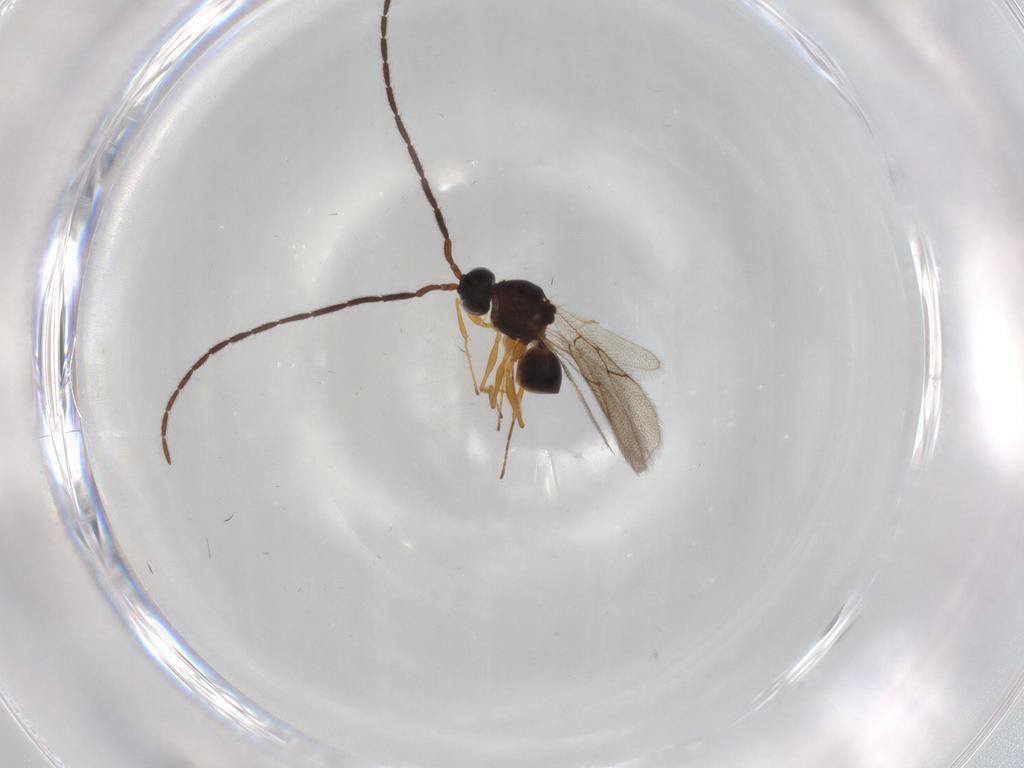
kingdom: Animalia
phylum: Arthropoda
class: Insecta
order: Hymenoptera
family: Figitidae
